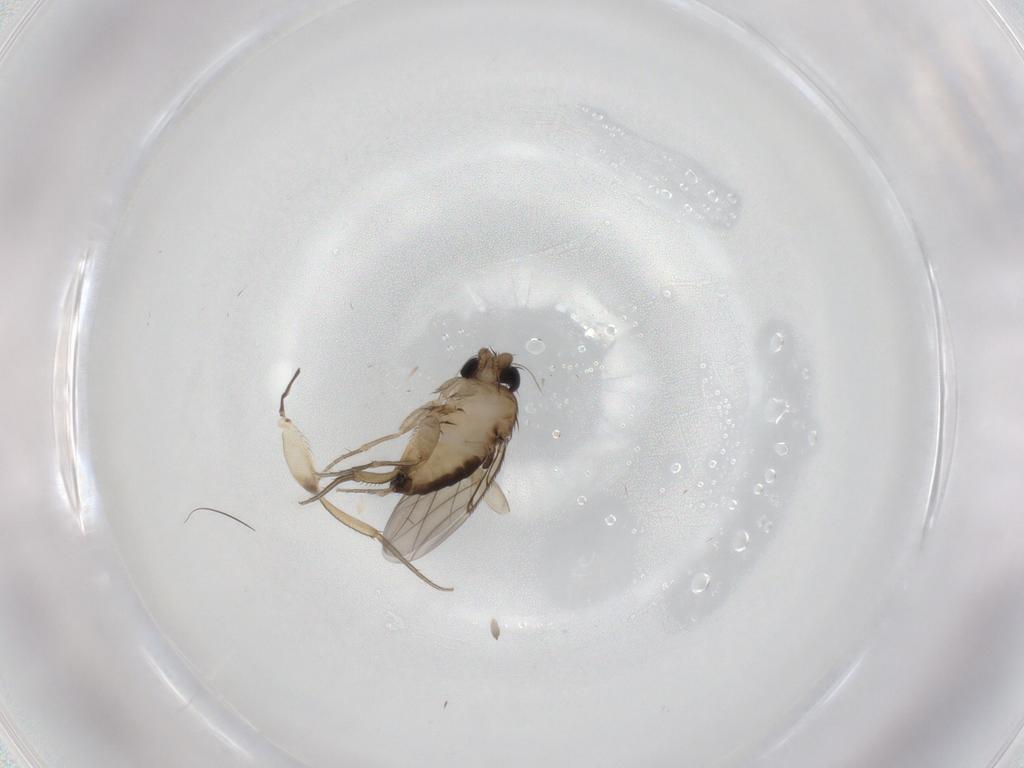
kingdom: Animalia
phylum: Arthropoda
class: Insecta
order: Diptera
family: Phoridae
